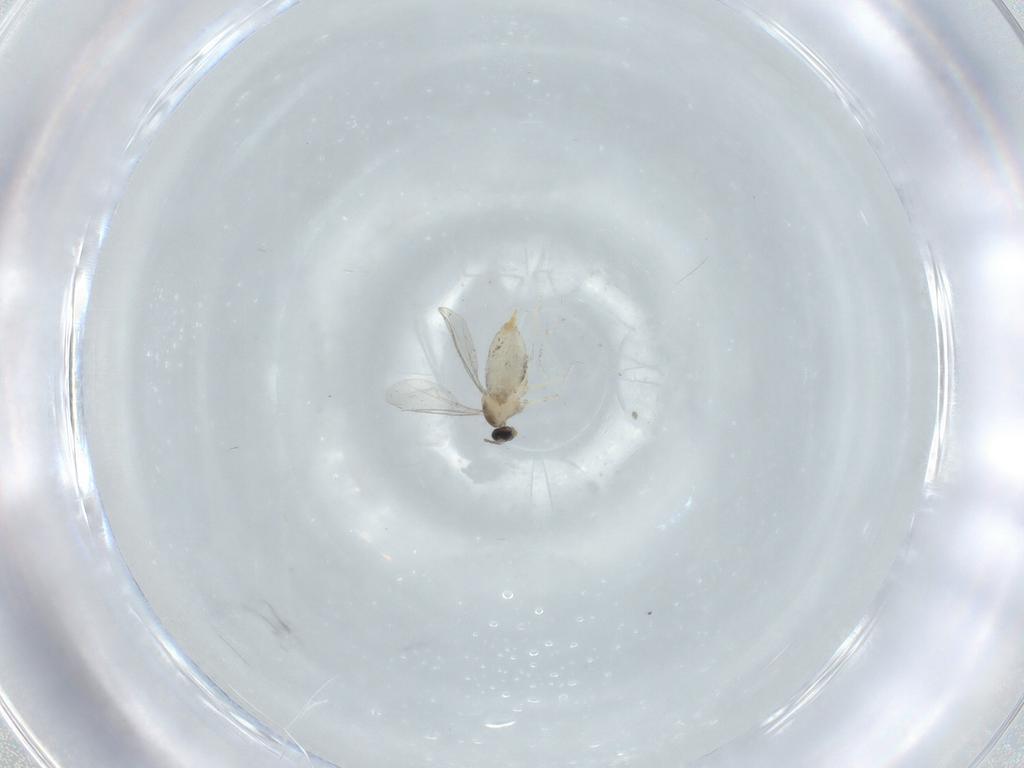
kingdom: Animalia
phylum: Arthropoda
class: Insecta
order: Diptera
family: Cecidomyiidae
